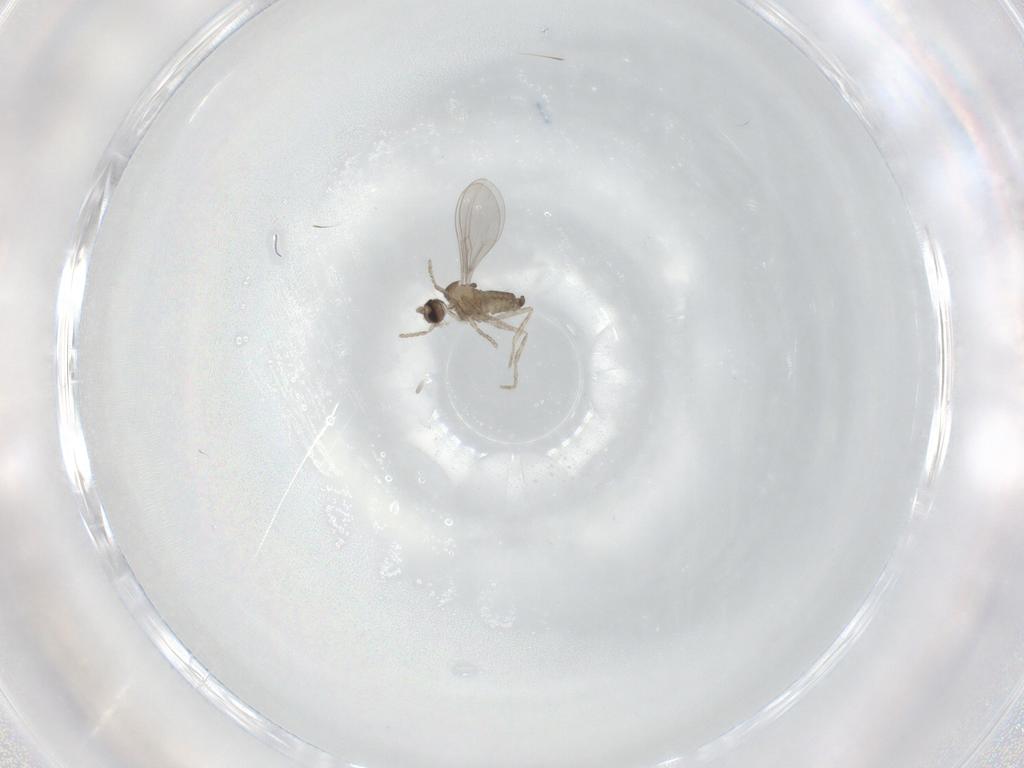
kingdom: Animalia
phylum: Arthropoda
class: Insecta
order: Diptera
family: Cecidomyiidae
